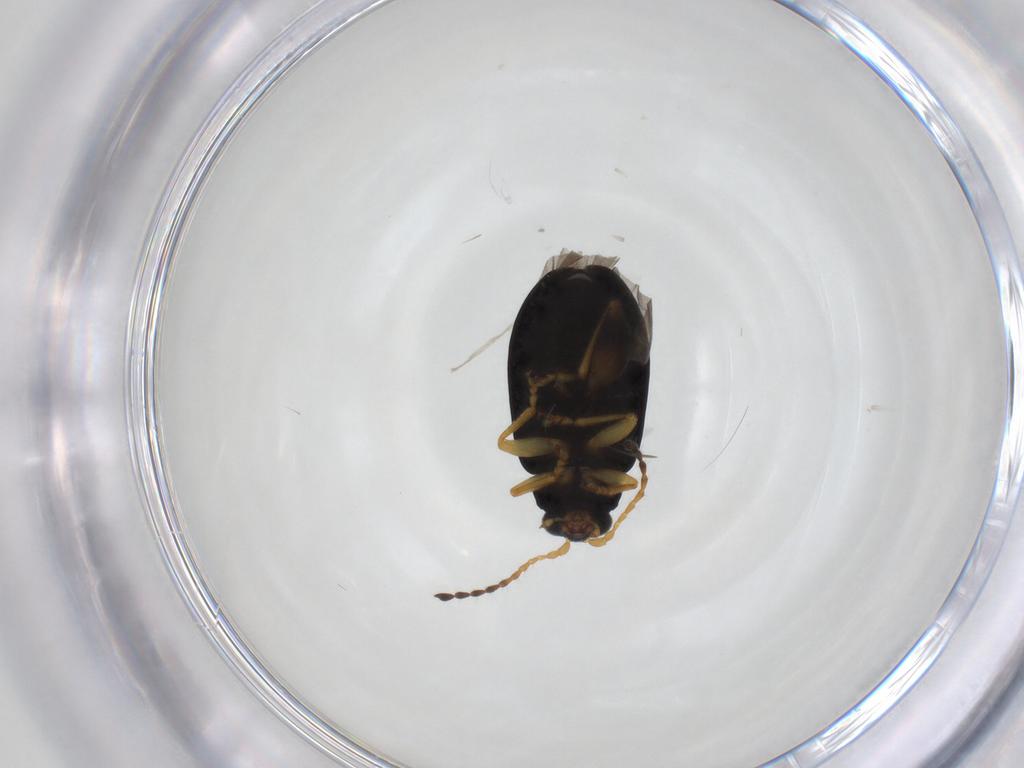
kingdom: Animalia
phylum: Arthropoda
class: Insecta
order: Coleoptera
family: Chrysomelidae
